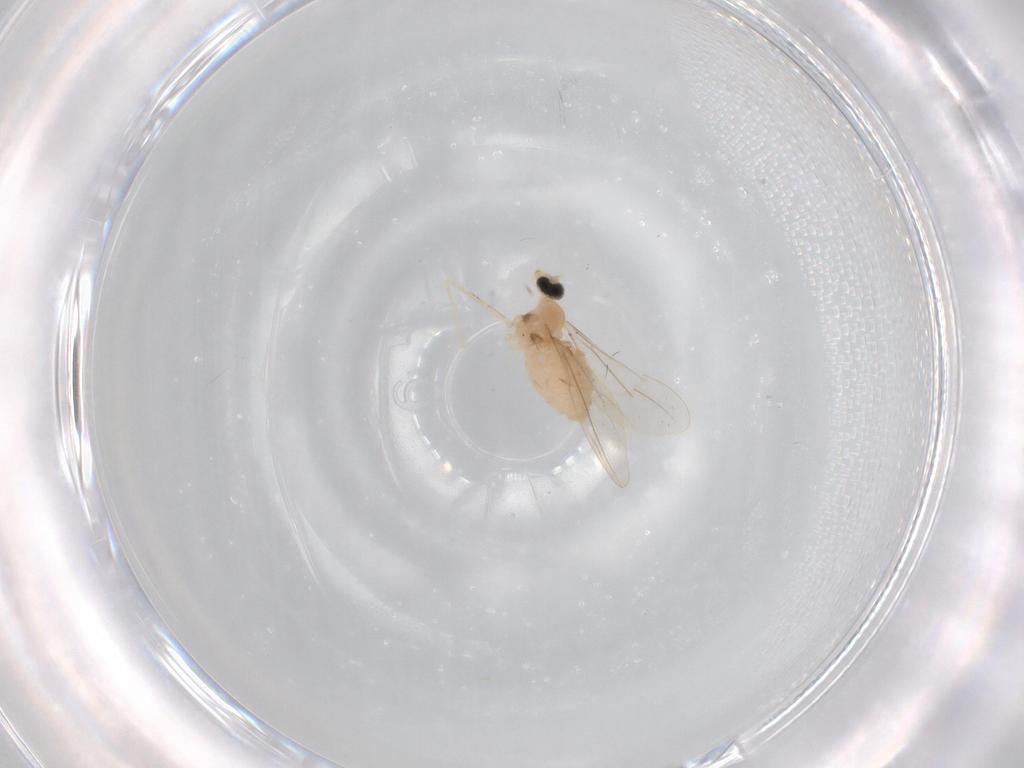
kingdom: Animalia
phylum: Arthropoda
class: Insecta
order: Diptera
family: Cecidomyiidae
